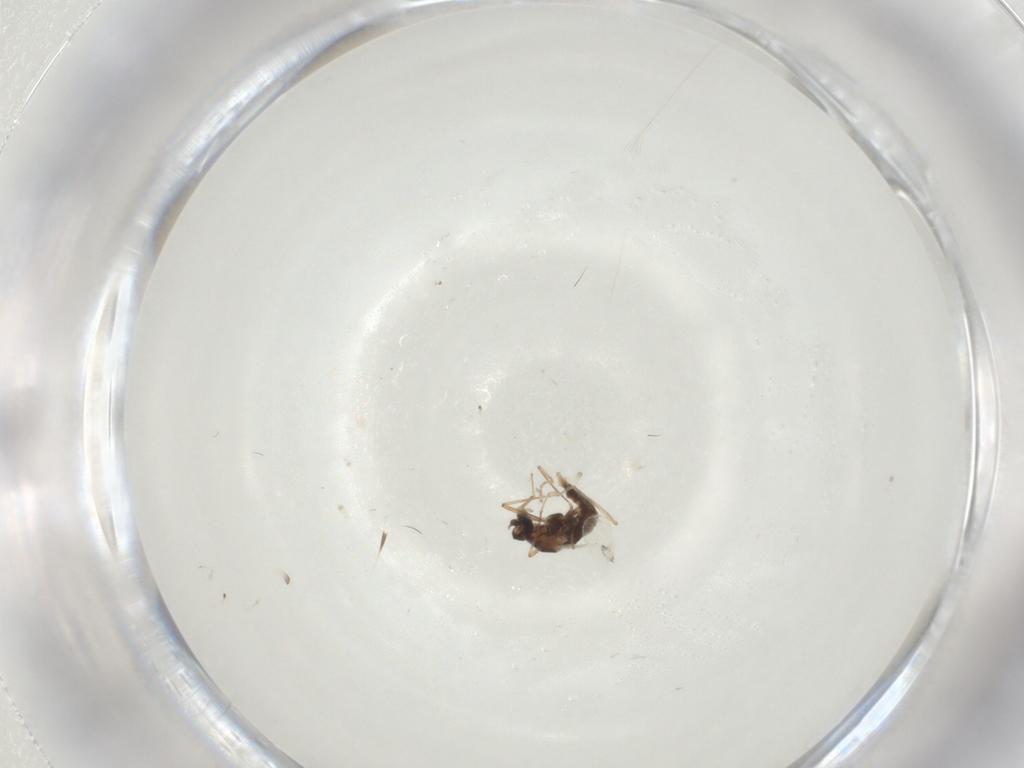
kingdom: Animalia
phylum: Arthropoda
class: Insecta
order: Diptera
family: Cecidomyiidae
